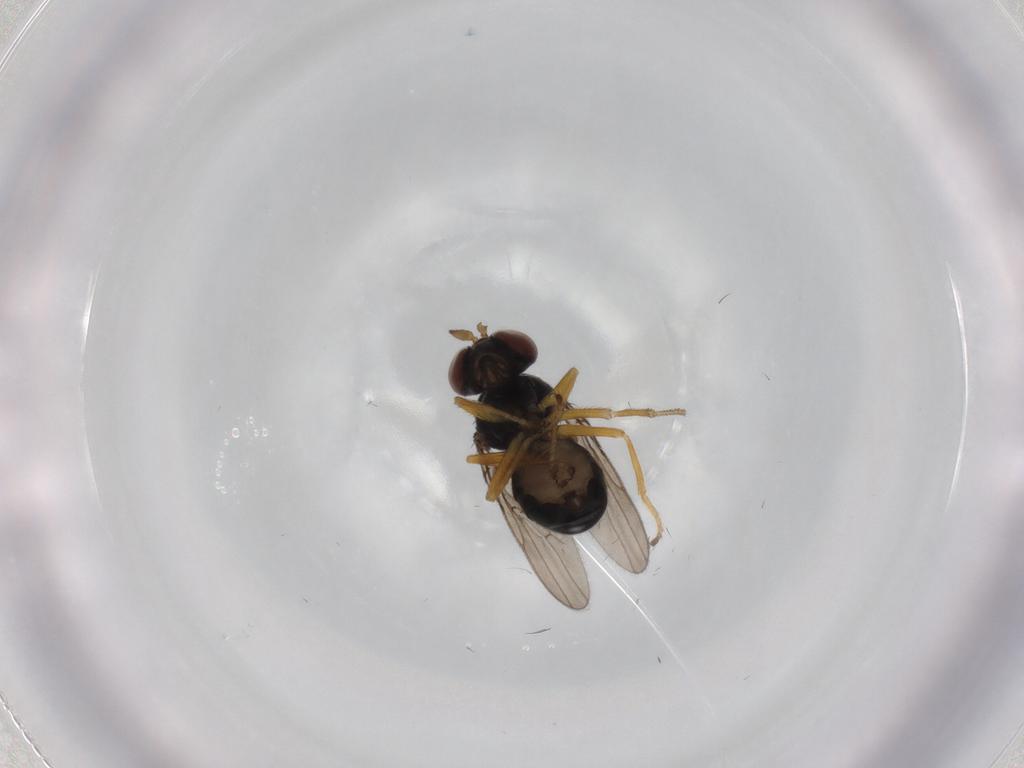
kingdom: Animalia
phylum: Arthropoda
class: Insecta
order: Diptera
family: Ephydridae
